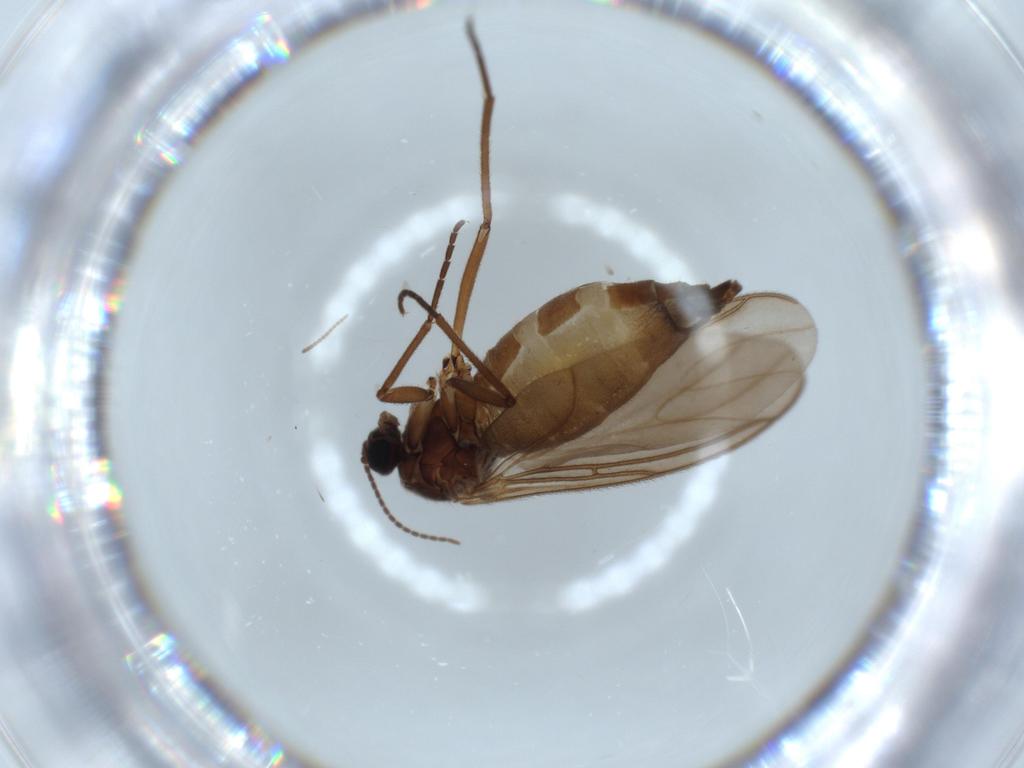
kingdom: Animalia
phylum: Arthropoda
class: Insecta
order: Diptera
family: Sciaridae
